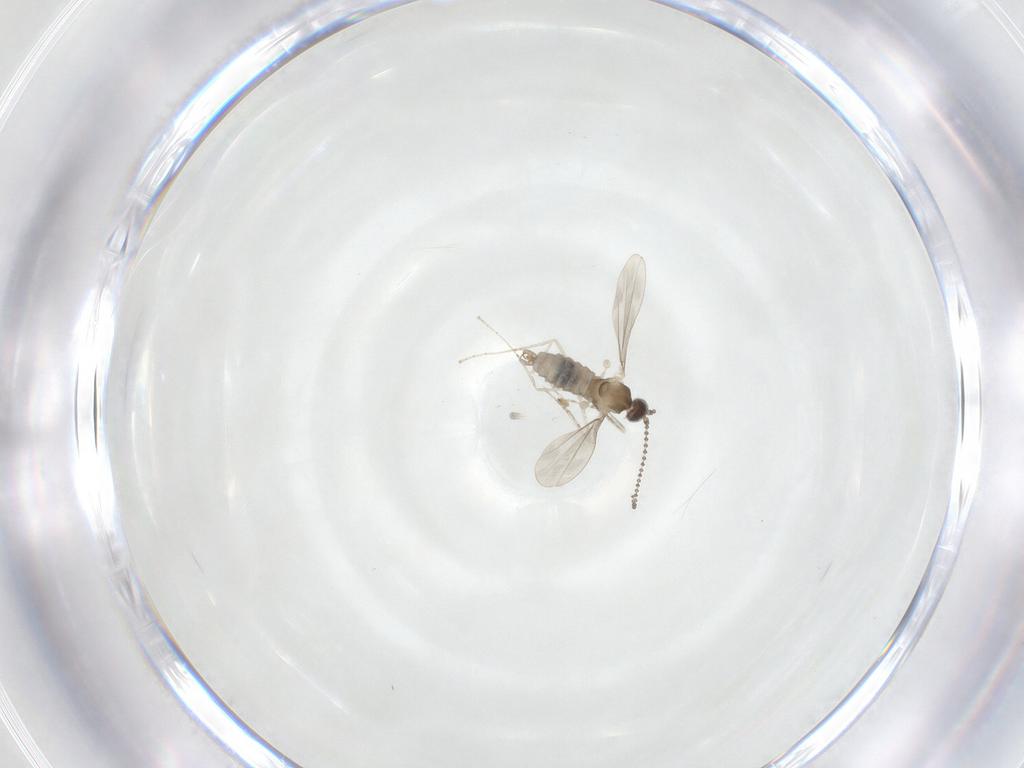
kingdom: Animalia
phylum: Arthropoda
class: Insecta
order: Diptera
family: Cecidomyiidae
